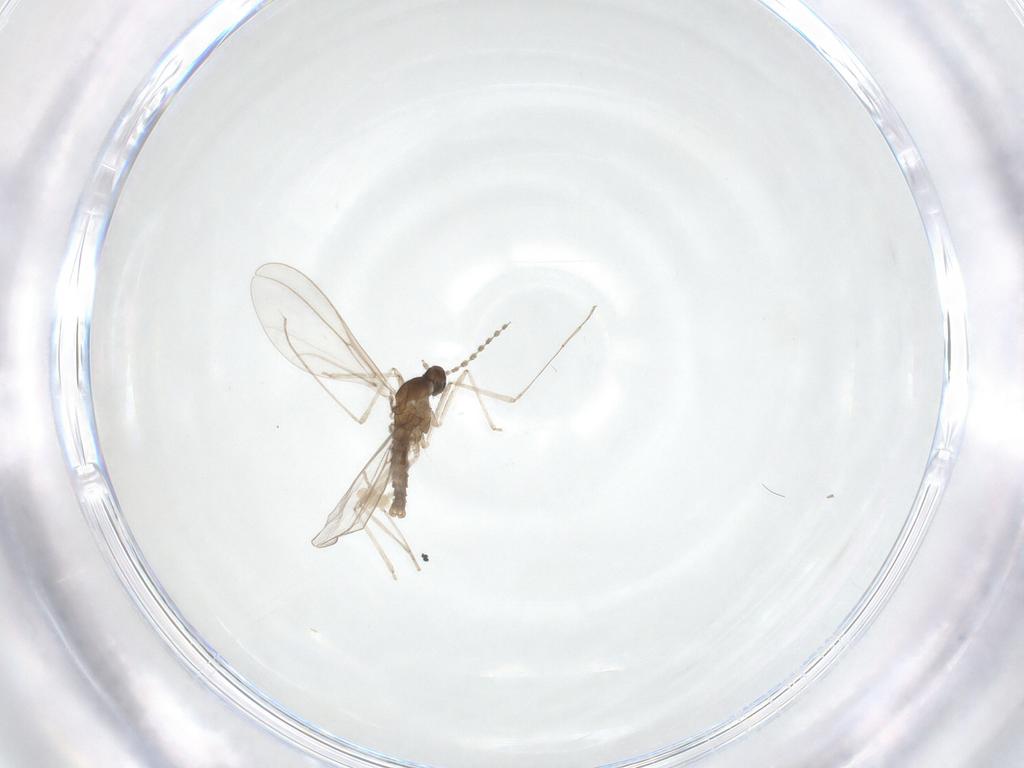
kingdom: Animalia
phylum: Arthropoda
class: Insecta
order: Diptera
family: Cecidomyiidae
